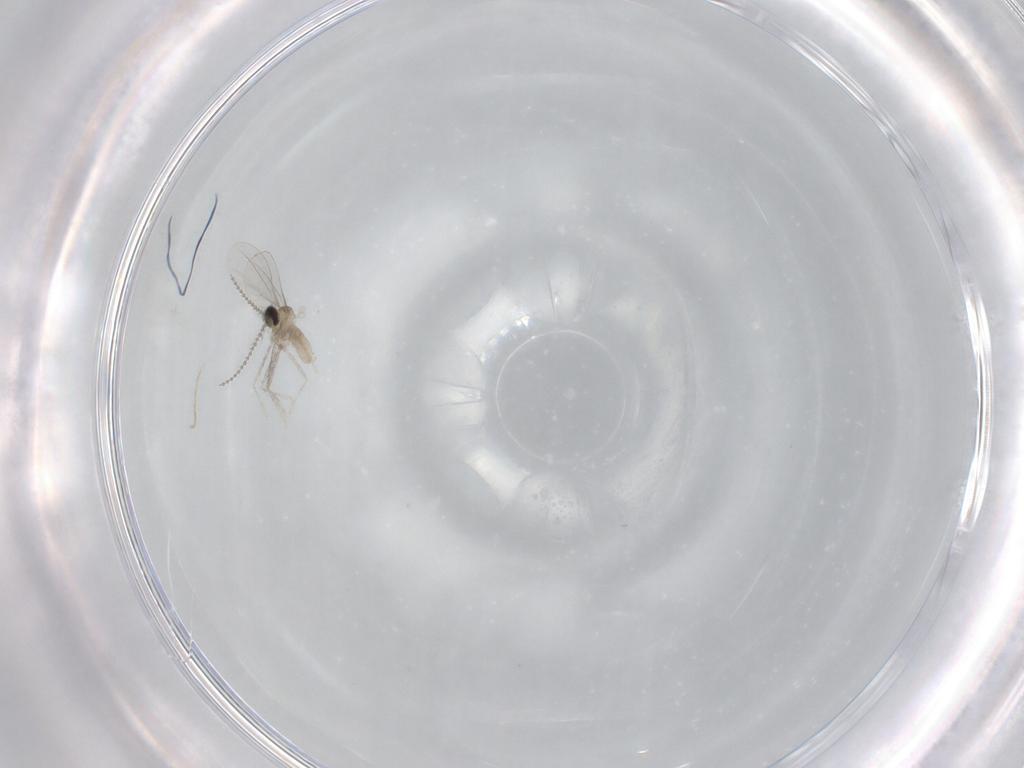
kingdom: Animalia
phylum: Arthropoda
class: Insecta
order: Diptera
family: Cecidomyiidae
